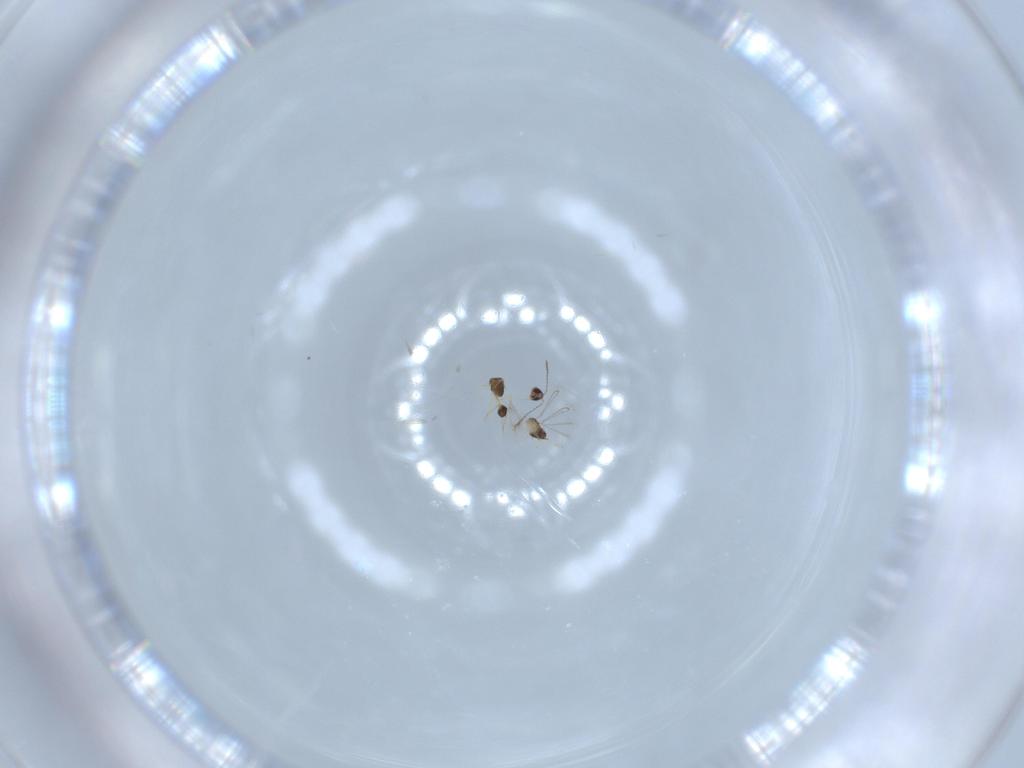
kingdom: Animalia
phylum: Arthropoda
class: Insecta
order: Hymenoptera
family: Mymarommatidae
